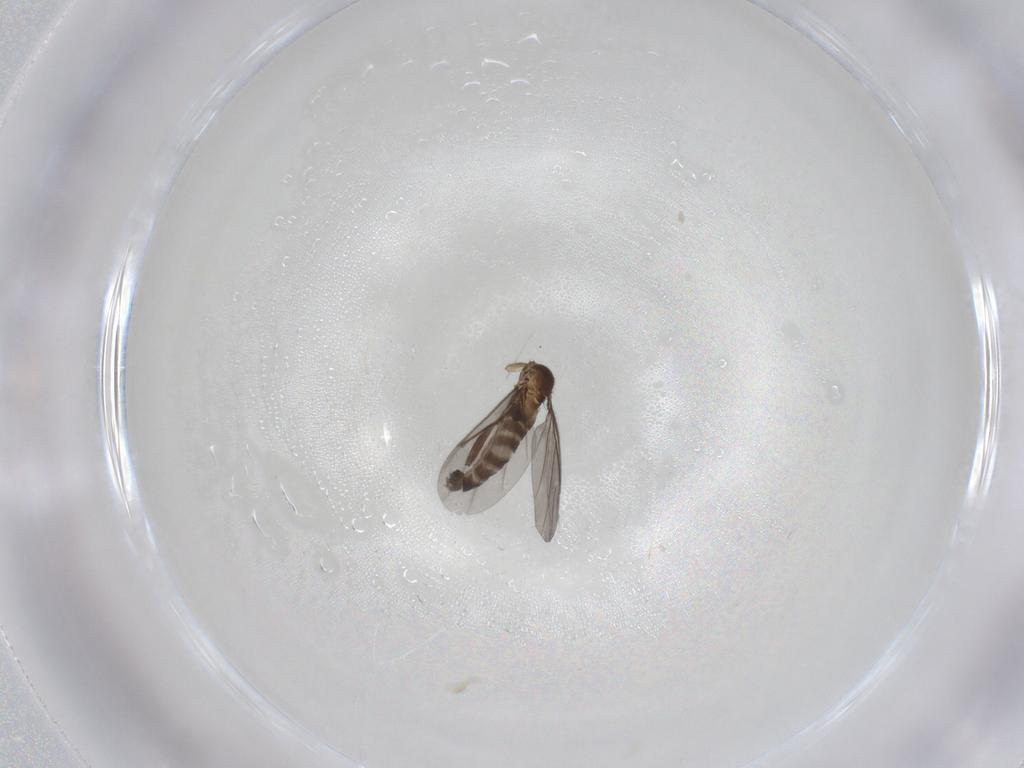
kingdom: Animalia
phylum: Arthropoda
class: Insecta
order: Diptera
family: Phoridae
